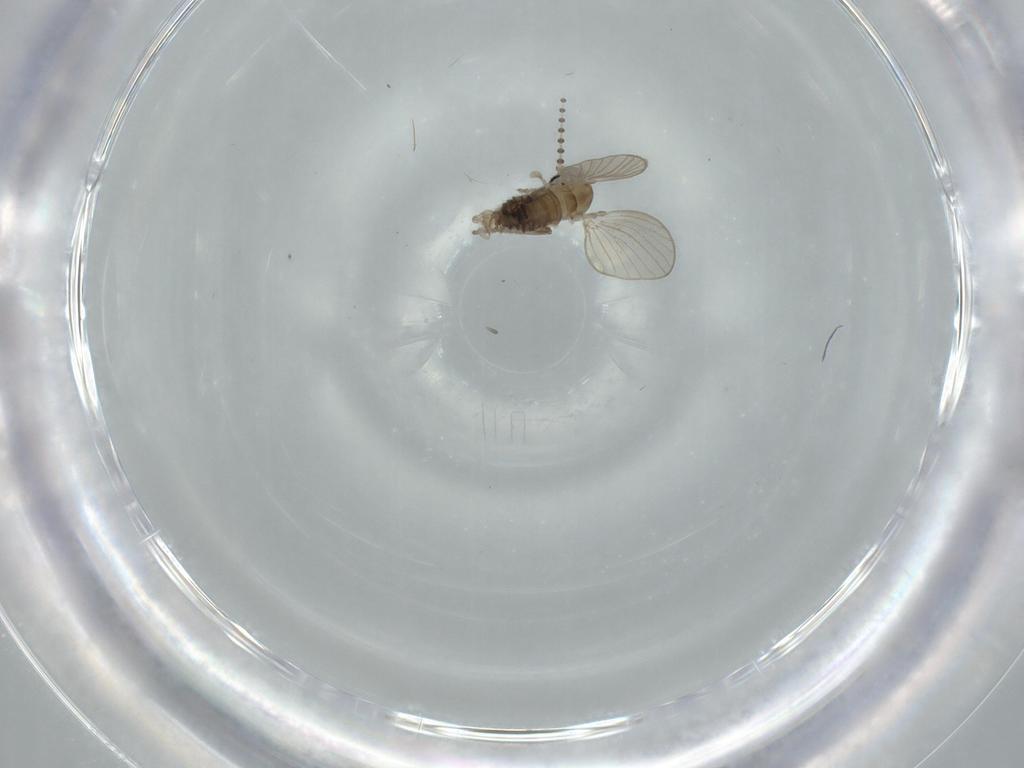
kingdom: Animalia
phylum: Arthropoda
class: Insecta
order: Diptera
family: Psychodidae
